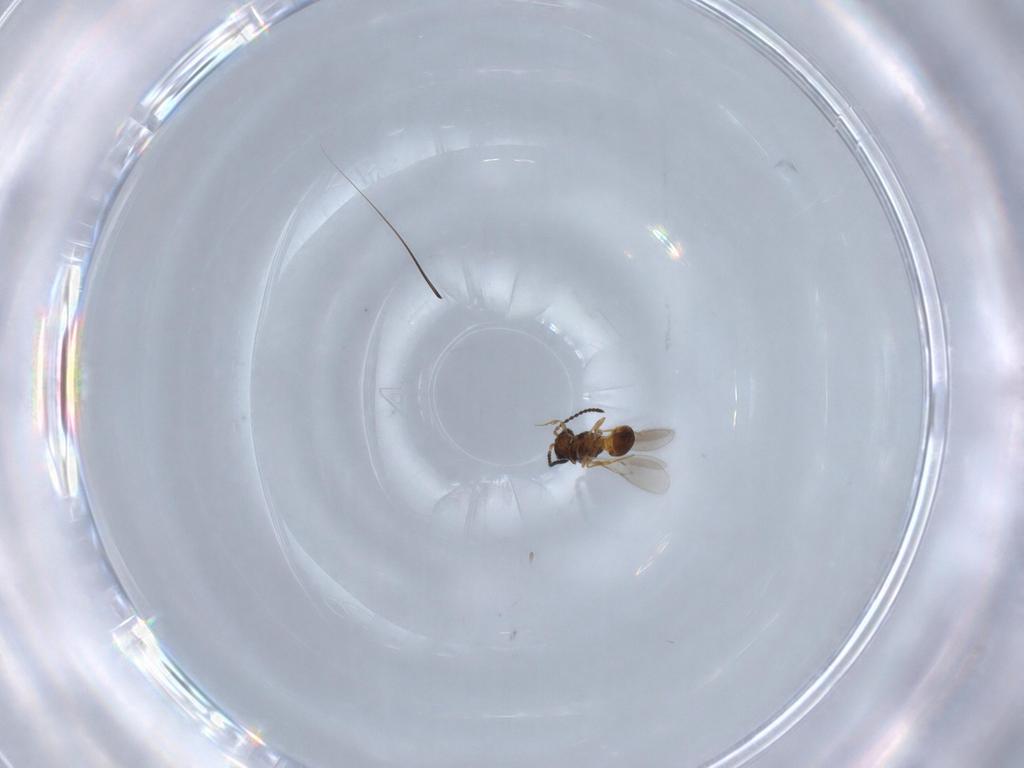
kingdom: Animalia
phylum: Arthropoda
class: Insecta
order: Hymenoptera
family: Scelionidae
